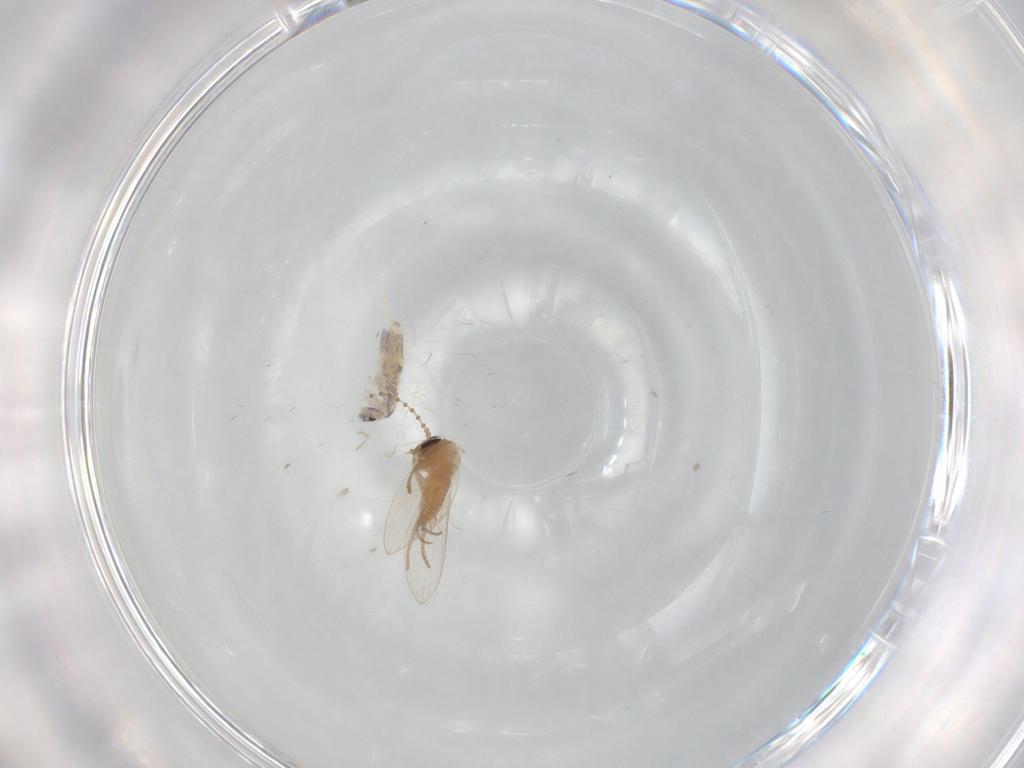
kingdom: Animalia
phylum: Arthropoda
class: Insecta
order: Diptera
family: Psychodidae
